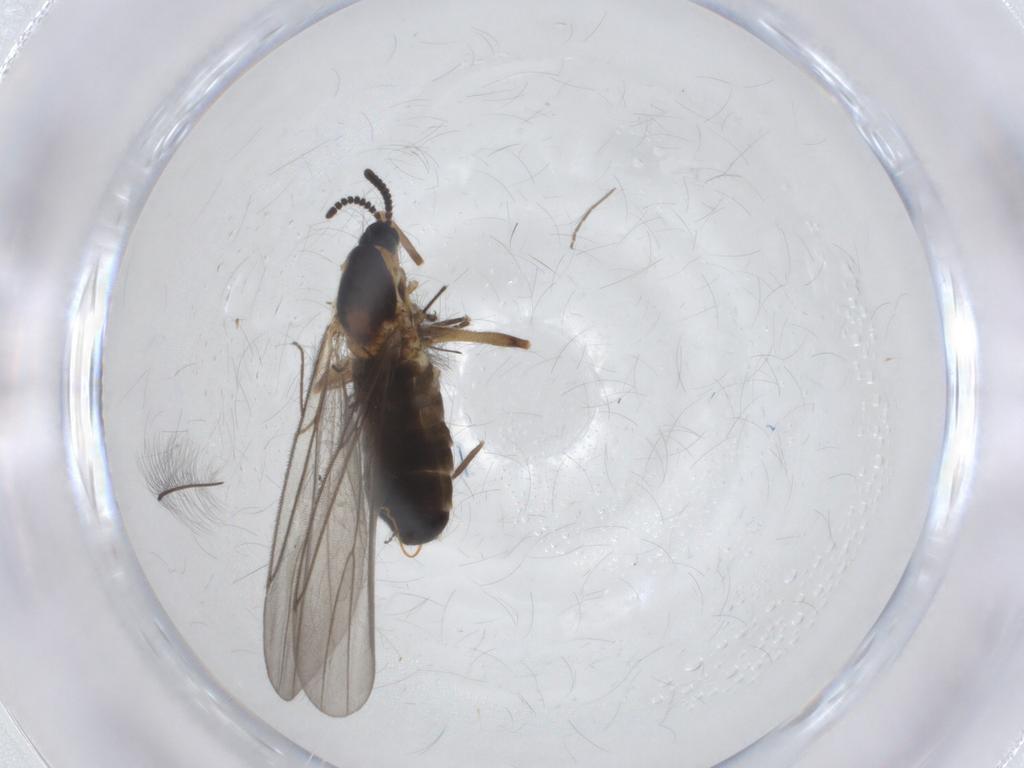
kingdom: Animalia
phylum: Arthropoda
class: Insecta
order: Diptera
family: Scatopsidae
